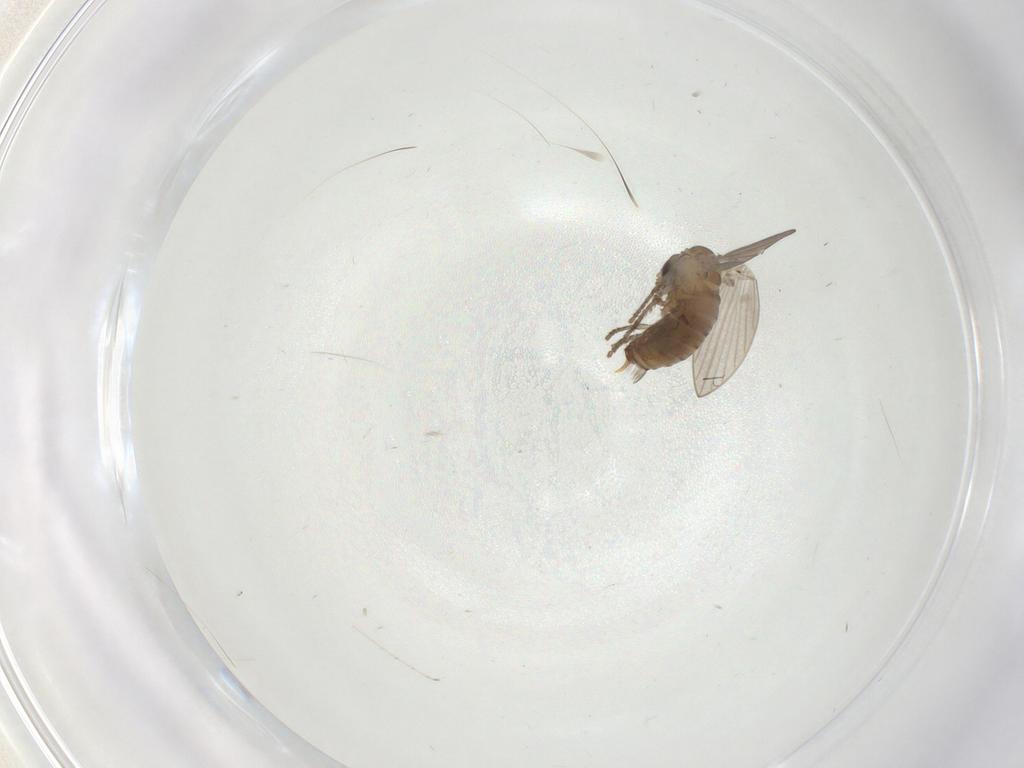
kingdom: Animalia
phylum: Arthropoda
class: Insecta
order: Diptera
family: Psychodidae
